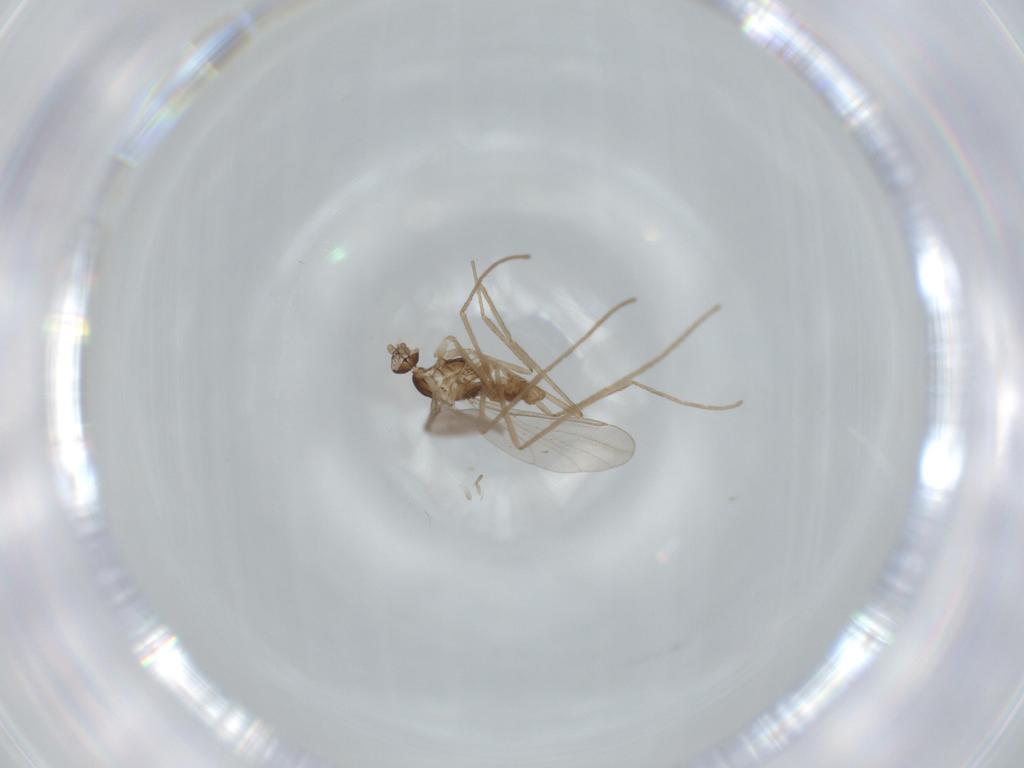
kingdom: Animalia
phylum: Arthropoda
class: Insecta
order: Diptera
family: Cecidomyiidae
